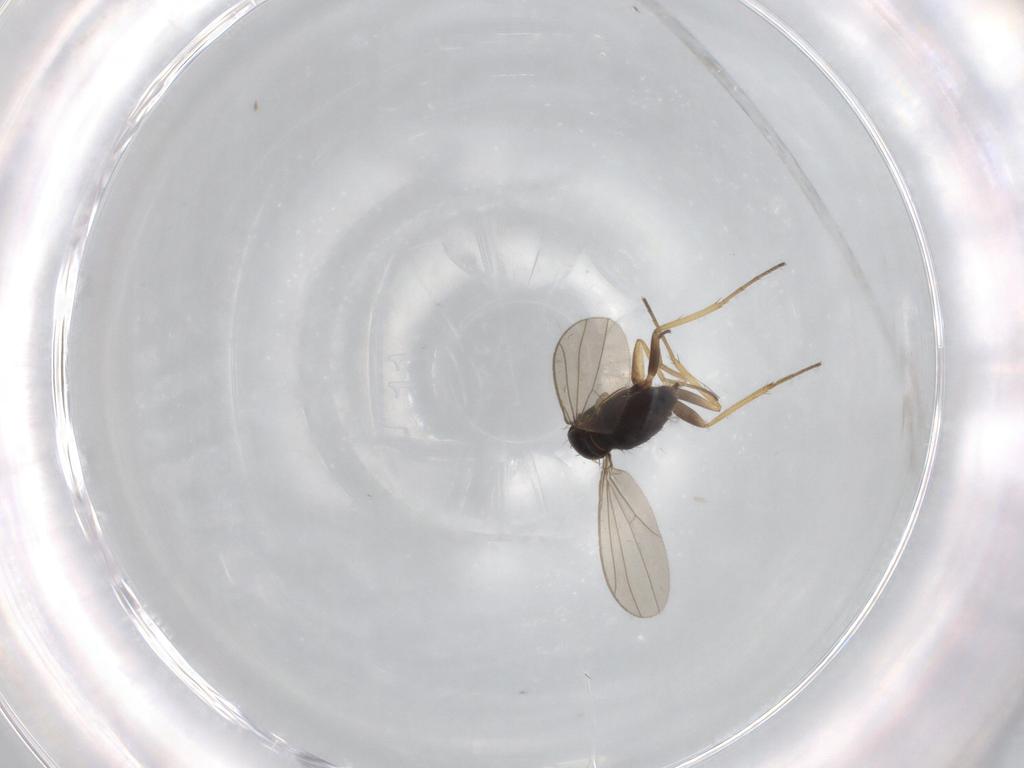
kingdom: Animalia
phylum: Arthropoda
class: Insecta
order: Diptera
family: Dolichopodidae
